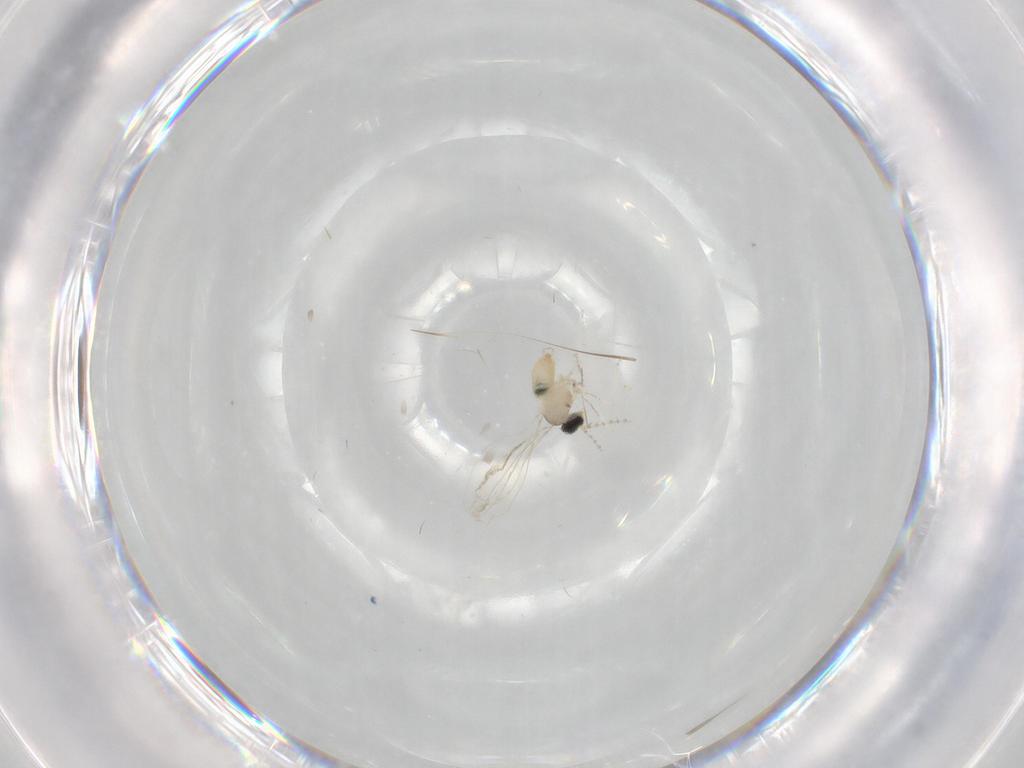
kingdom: Animalia
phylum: Arthropoda
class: Insecta
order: Diptera
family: Cecidomyiidae
